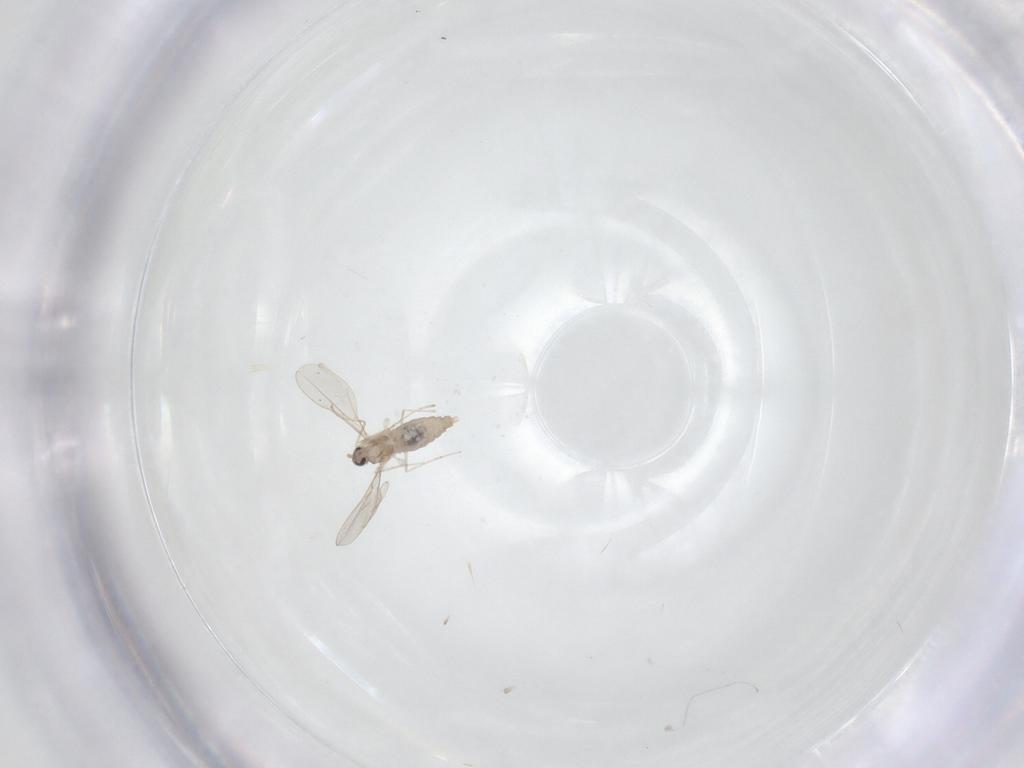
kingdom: Animalia
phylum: Arthropoda
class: Insecta
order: Diptera
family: Cecidomyiidae
